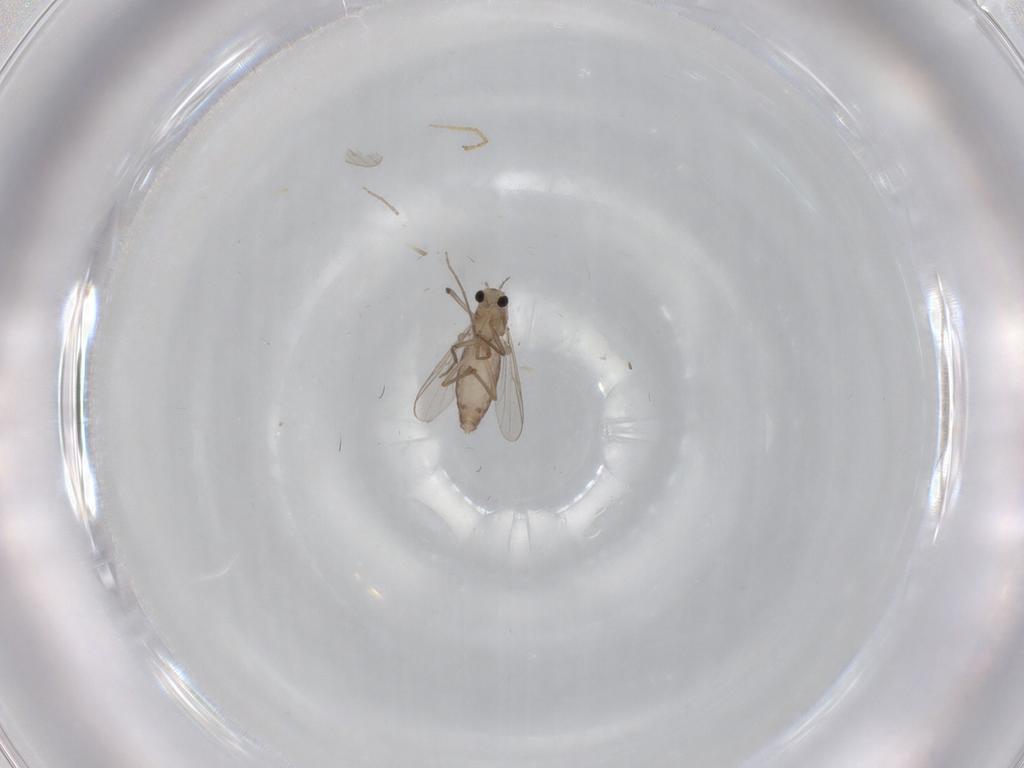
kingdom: Animalia
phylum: Arthropoda
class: Insecta
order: Diptera
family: Chironomidae
